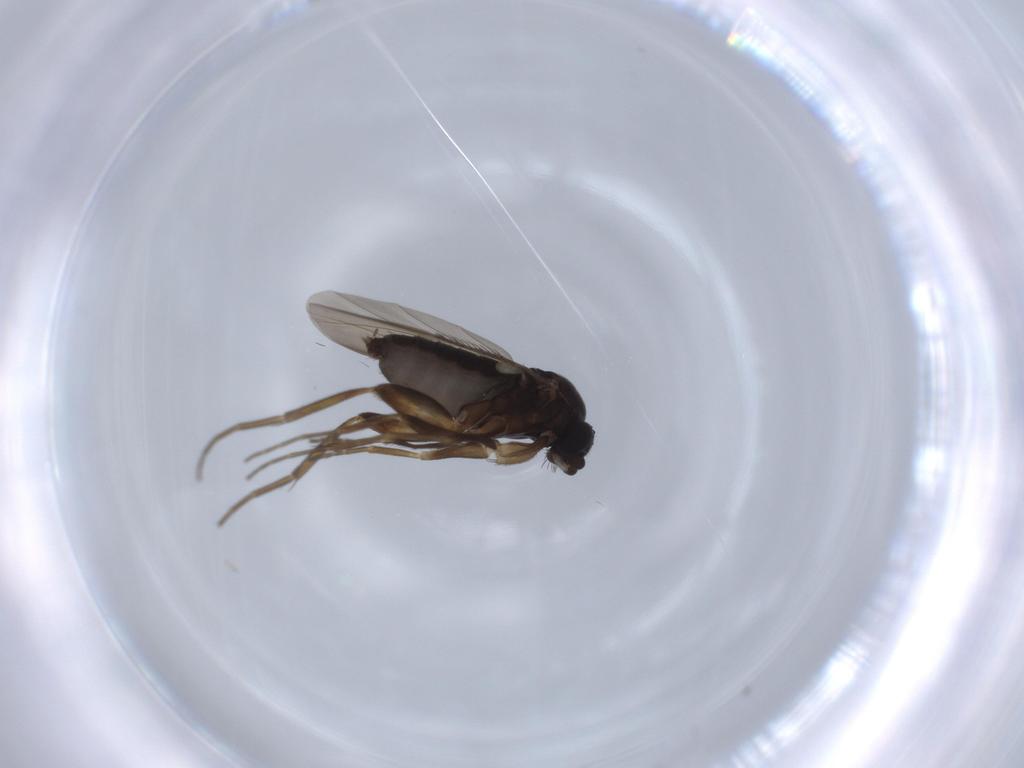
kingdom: Animalia
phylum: Arthropoda
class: Insecta
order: Diptera
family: Phoridae
